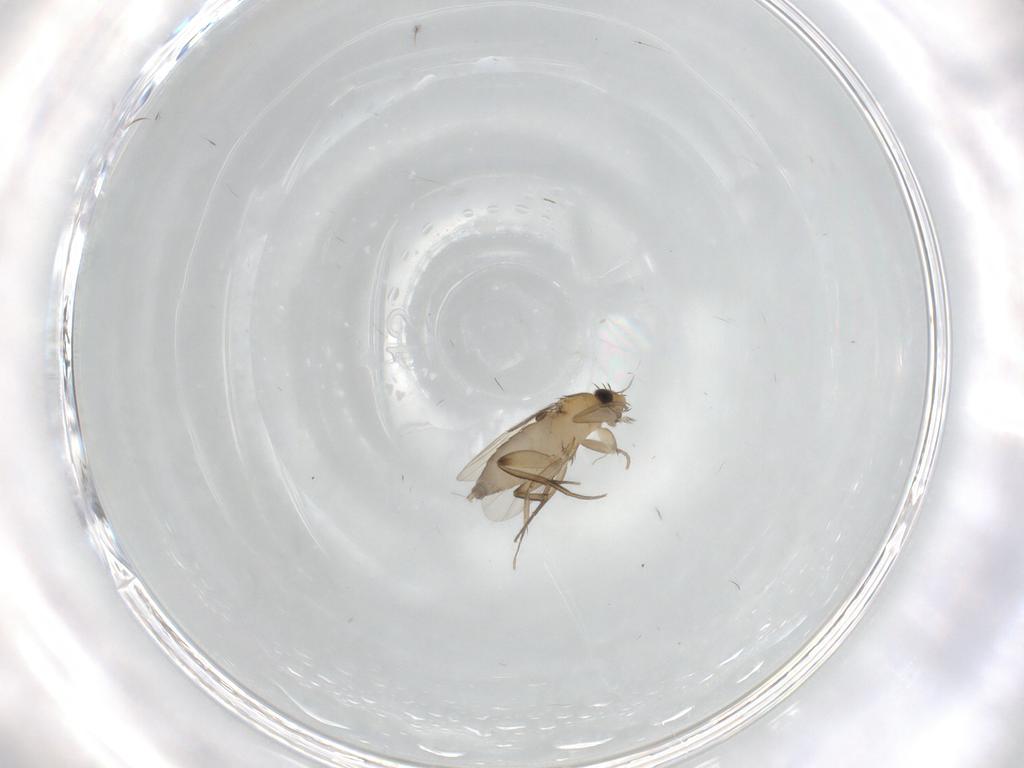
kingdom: Animalia
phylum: Arthropoda
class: Insecta
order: Diptera
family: Phoridae
